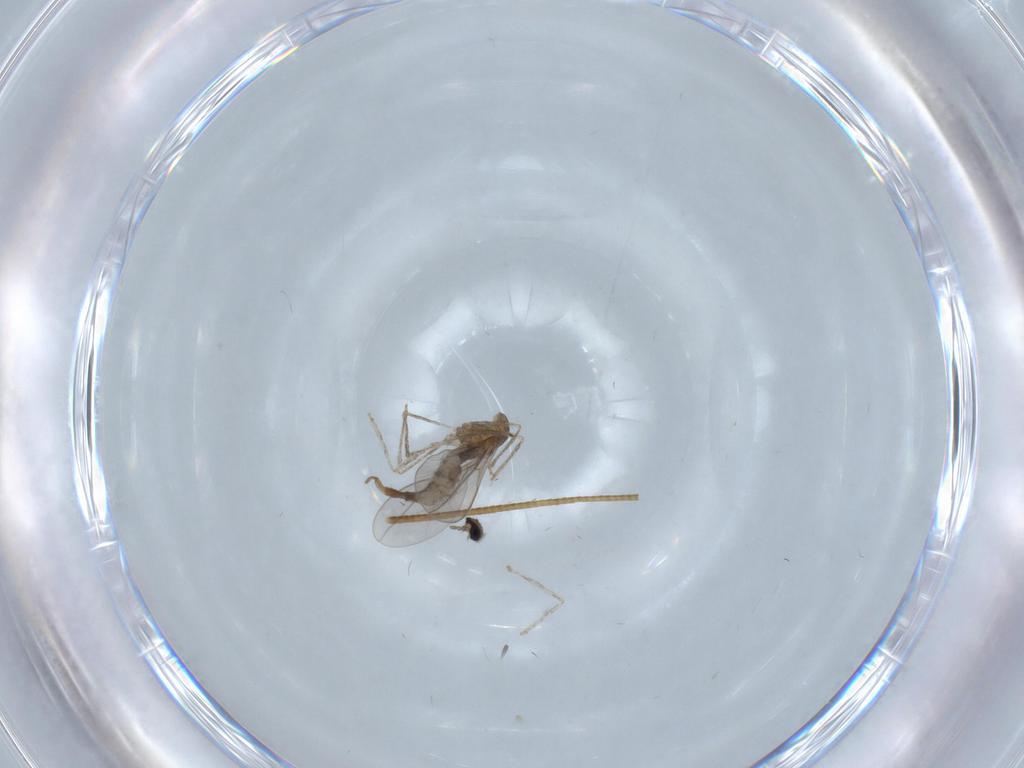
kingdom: Animalia
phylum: Arthropoda
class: Insecta
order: Diptera
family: Cecidomyiidae
